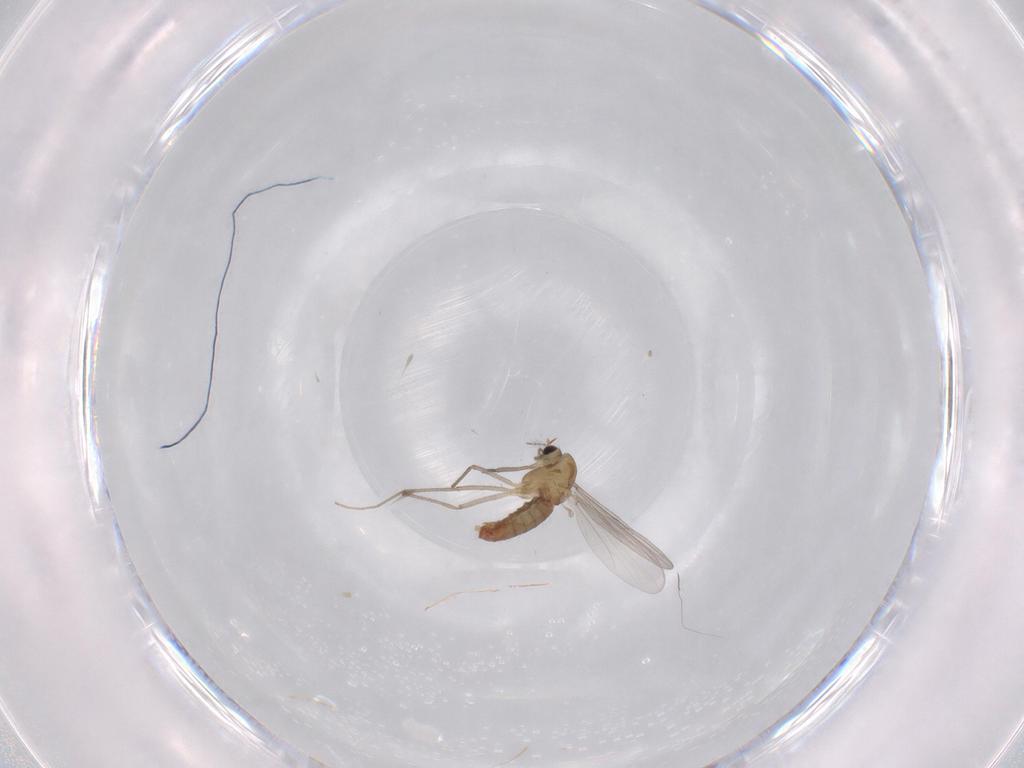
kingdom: Animalia
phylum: Arthropoda
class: Insecta
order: Diptera
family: Chironomidae
